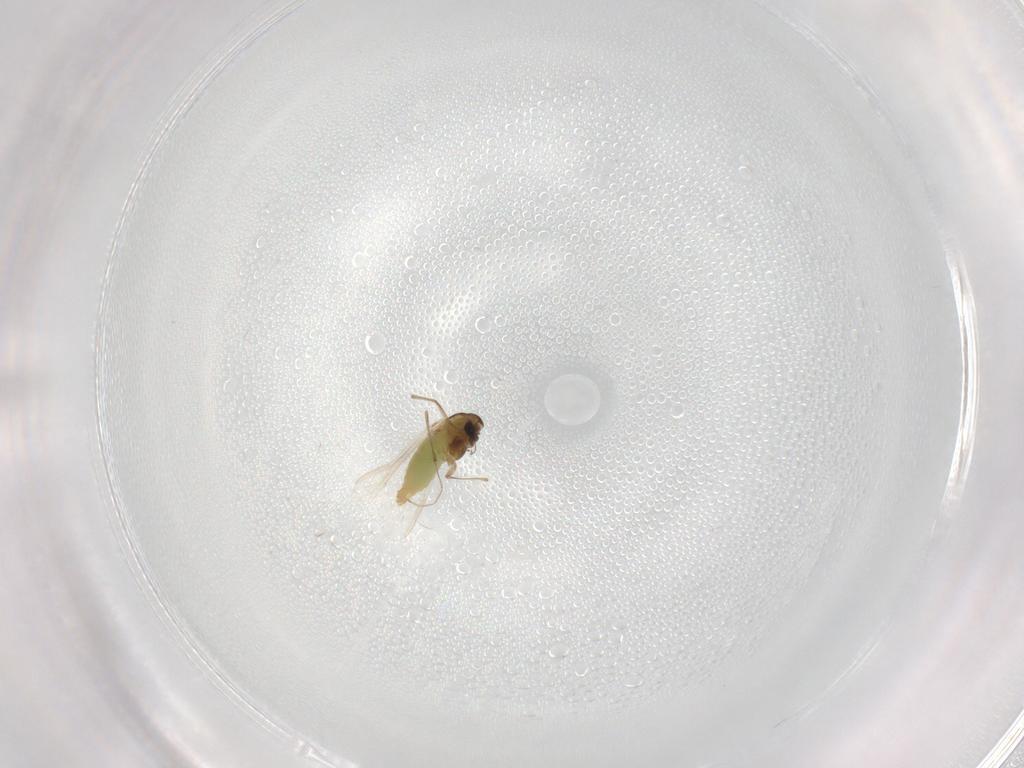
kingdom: Animalia
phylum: Arthropoda
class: Insecta
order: Diptera
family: Chironomidae
